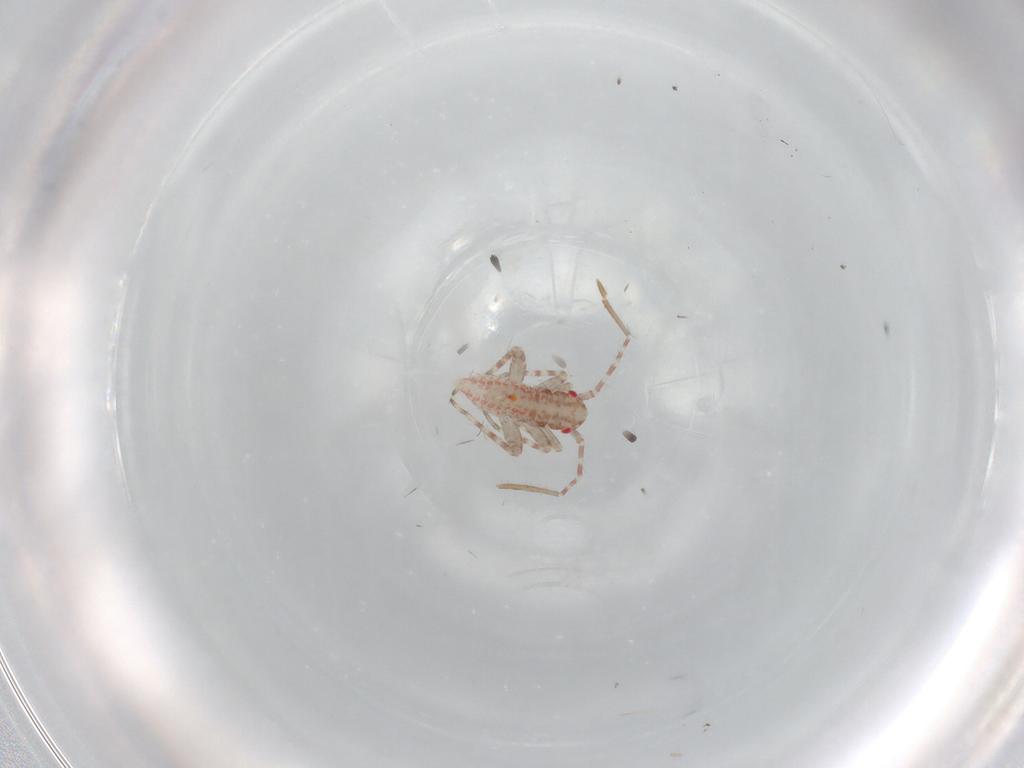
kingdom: Animalia
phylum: Arthropoda
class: Insecta
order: Hemiptera
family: Miridae
